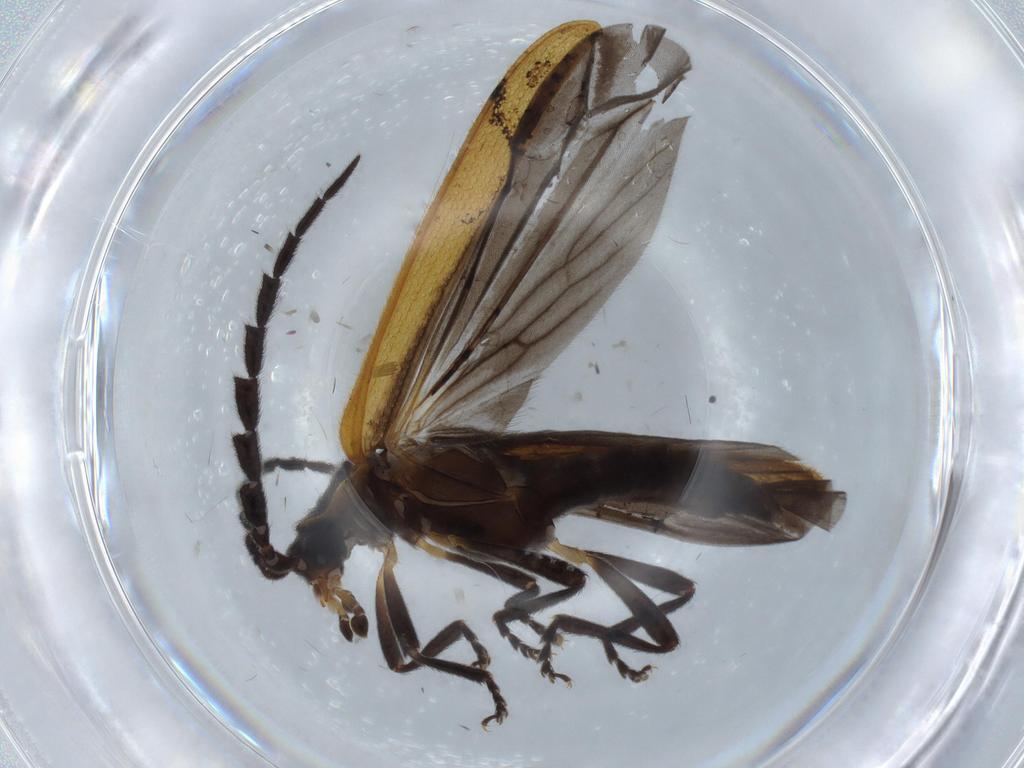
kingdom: Animalia
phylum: Arthropoda
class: Insecta
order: Coleoptera
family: Lycidae
